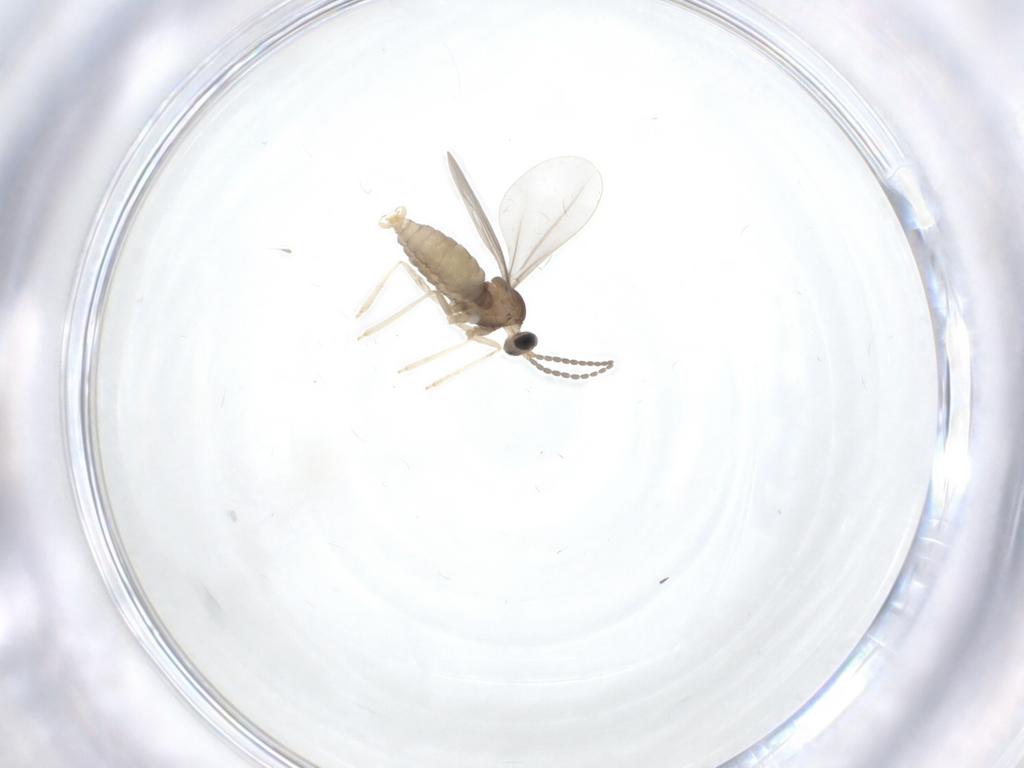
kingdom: Animalia
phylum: Arthropoda
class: Insecta
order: Diptera
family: Cecidomyiidae
